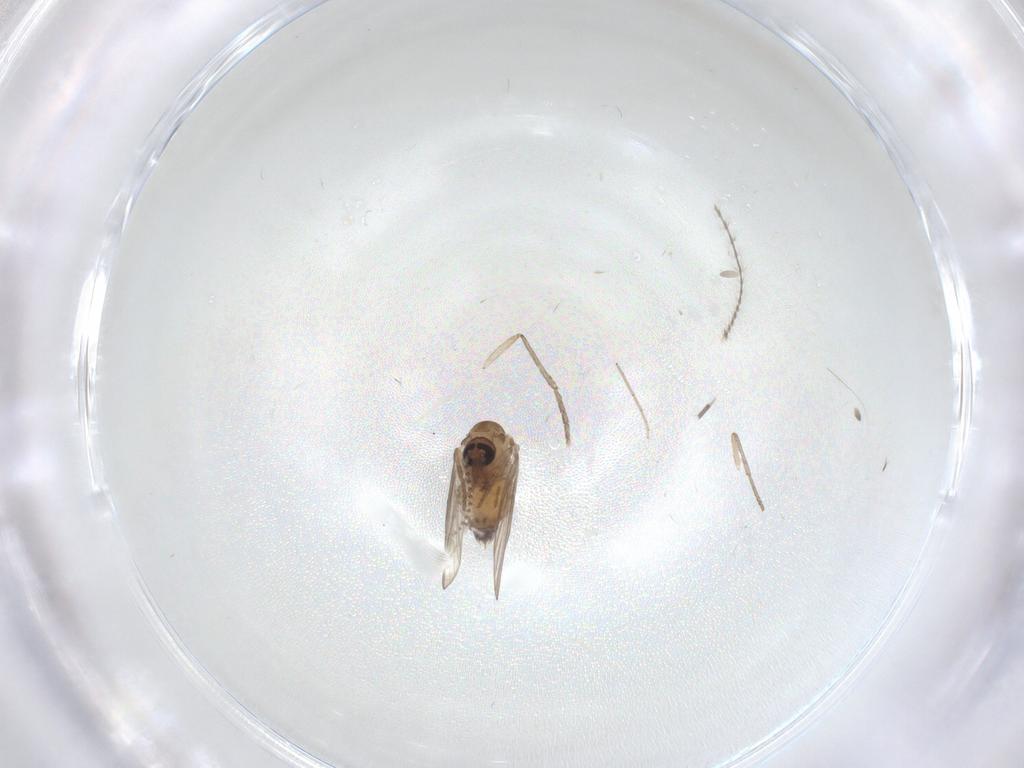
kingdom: Animalia
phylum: Arthropoda
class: Insecta
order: Diptera
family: Psychodidae
